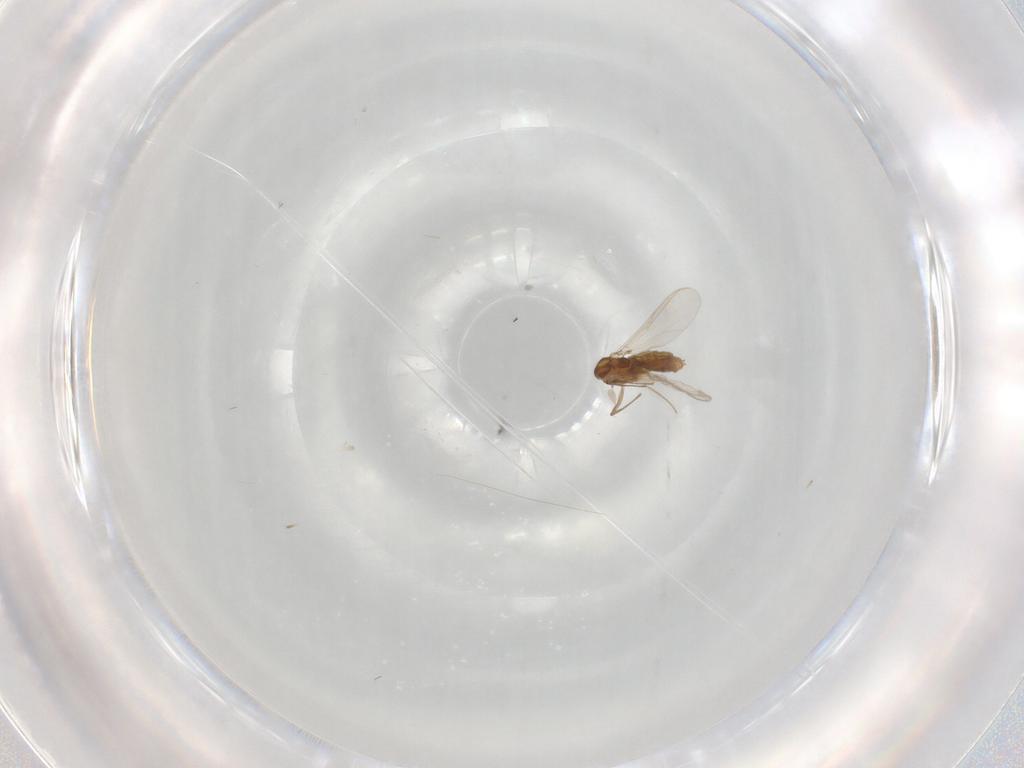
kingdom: Animalia
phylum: Arthropoda
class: Insecta
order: Diptera
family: Chironomidae
